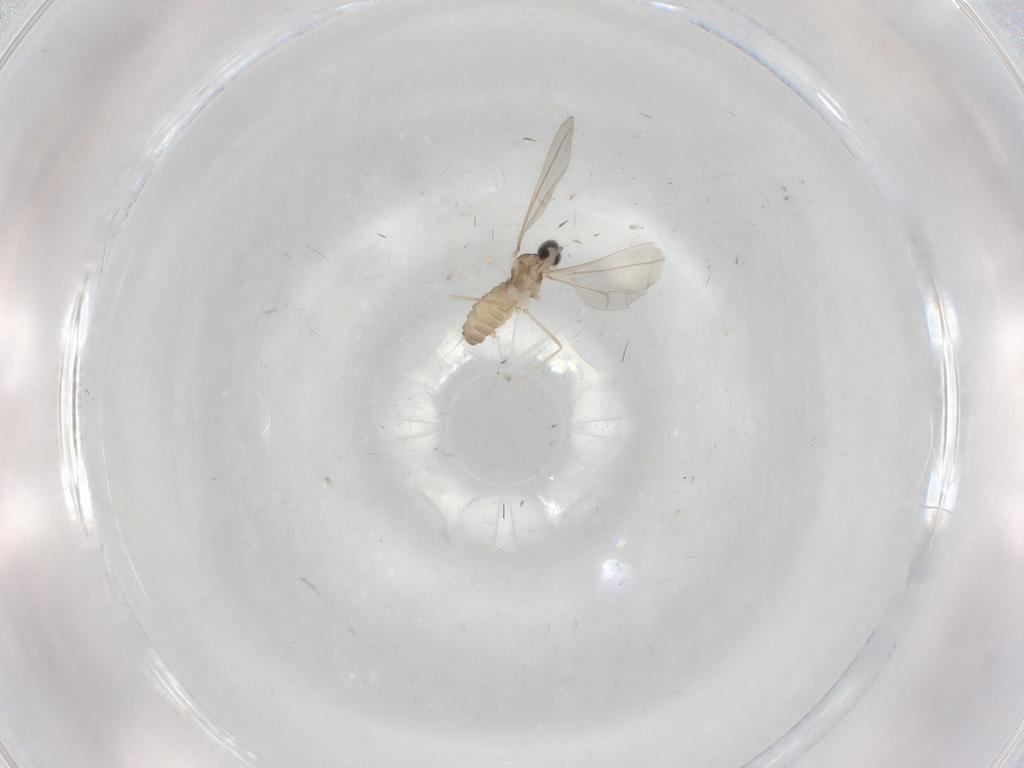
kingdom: Animalia
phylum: Arthropoda
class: Insecta
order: Diptera
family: Cecidomyiidae
